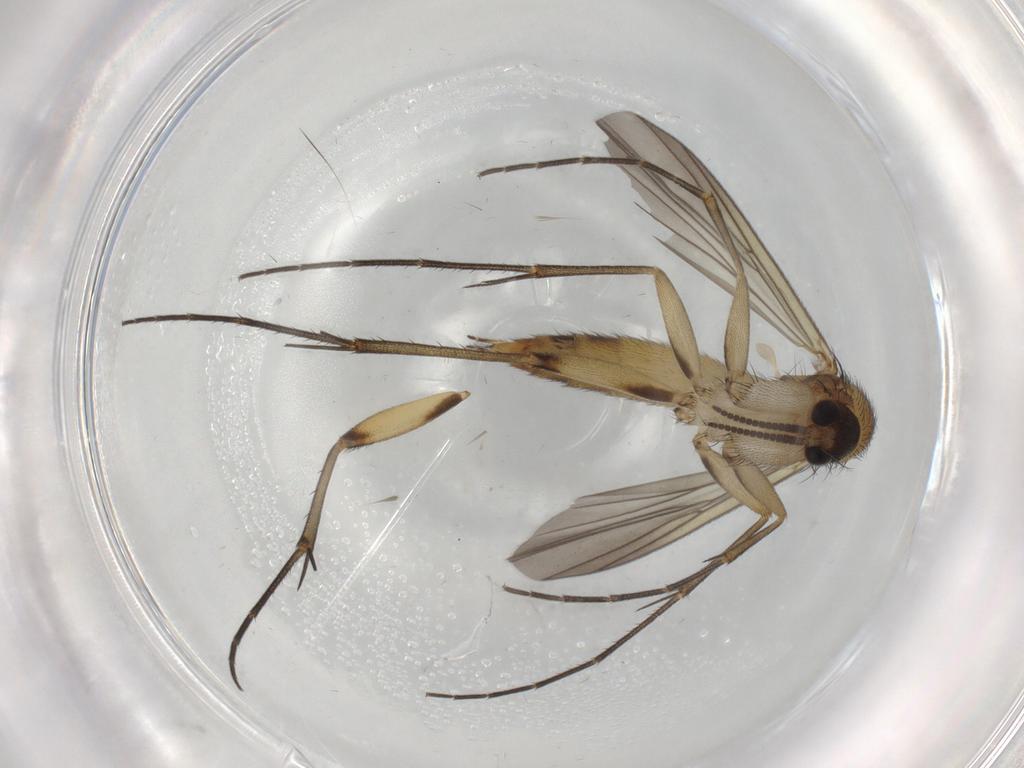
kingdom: Animalia
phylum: Arthropoda
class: Insecta
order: Diptera
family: Mycetophilidae
